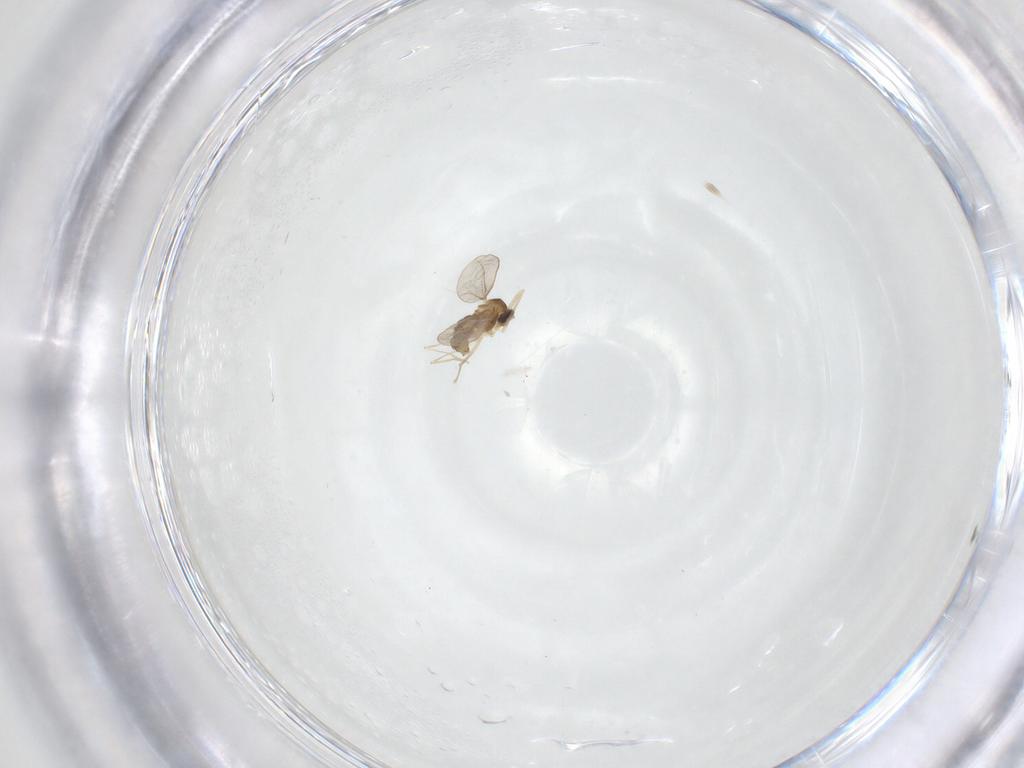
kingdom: Animalia
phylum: Arthropoda
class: Insecta
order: Diptera
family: Cecidomyiidae
